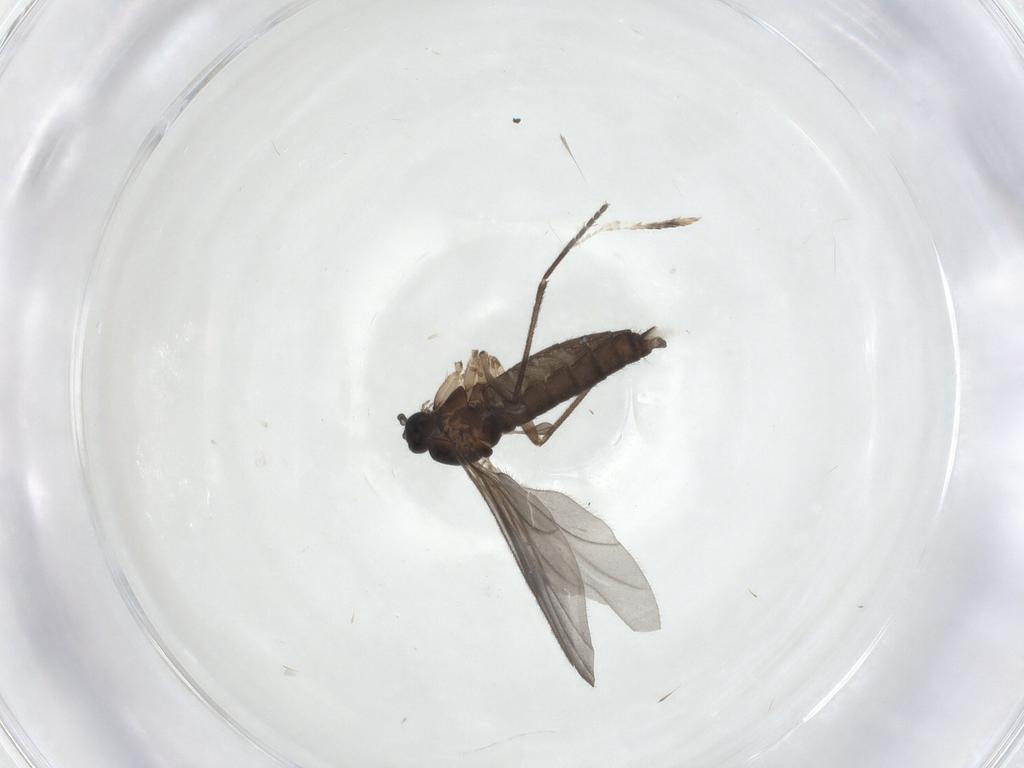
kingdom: Animalia
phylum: Arthropoda
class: Insecta
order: Diptera
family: Sciaridae
